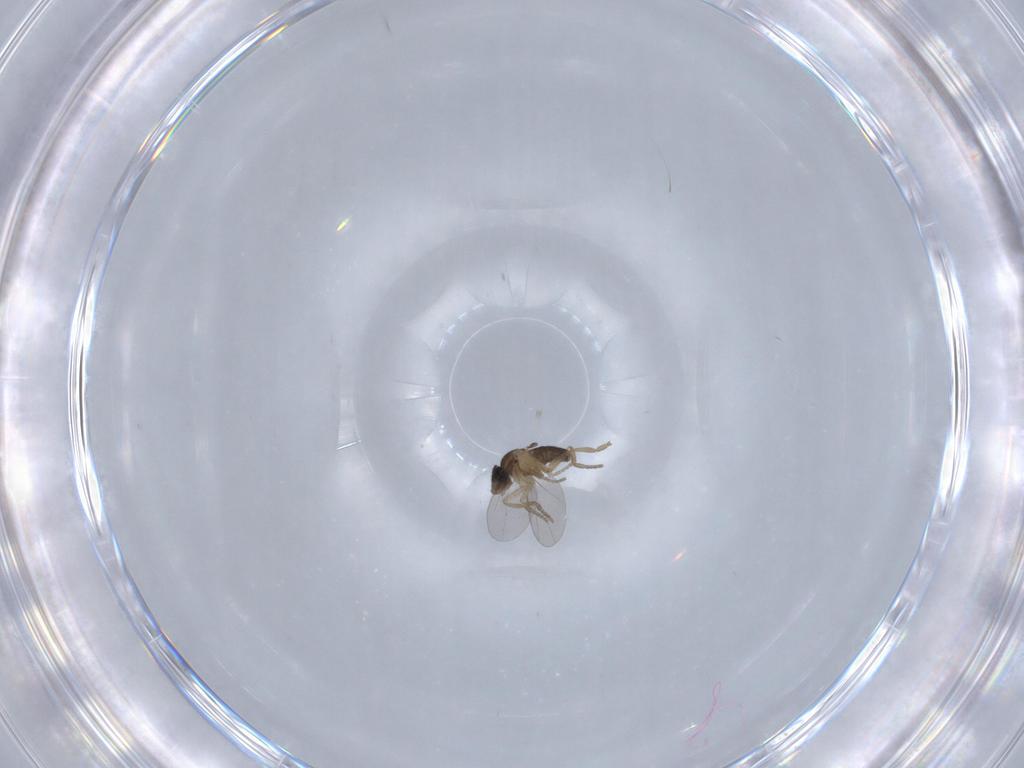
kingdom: Animalia
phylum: Arthropoda
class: Insecta
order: Diptera
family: Phoridae
